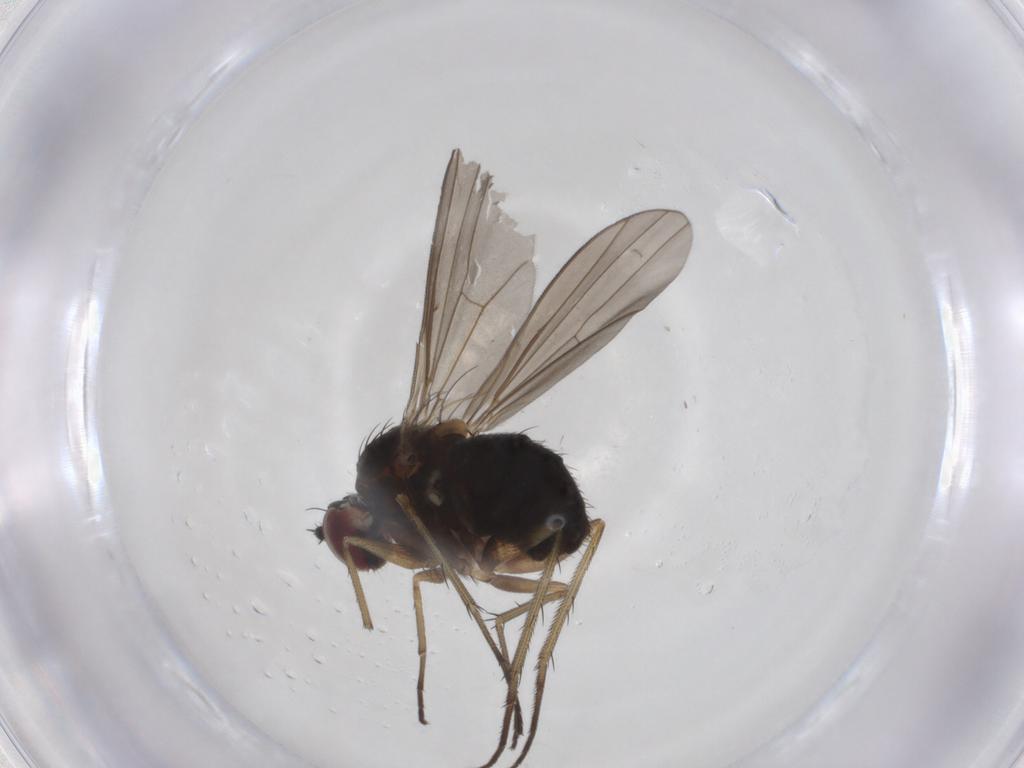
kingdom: Animalia
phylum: Arthropoda
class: Insecta
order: Diptera
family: Dolichopodidae
